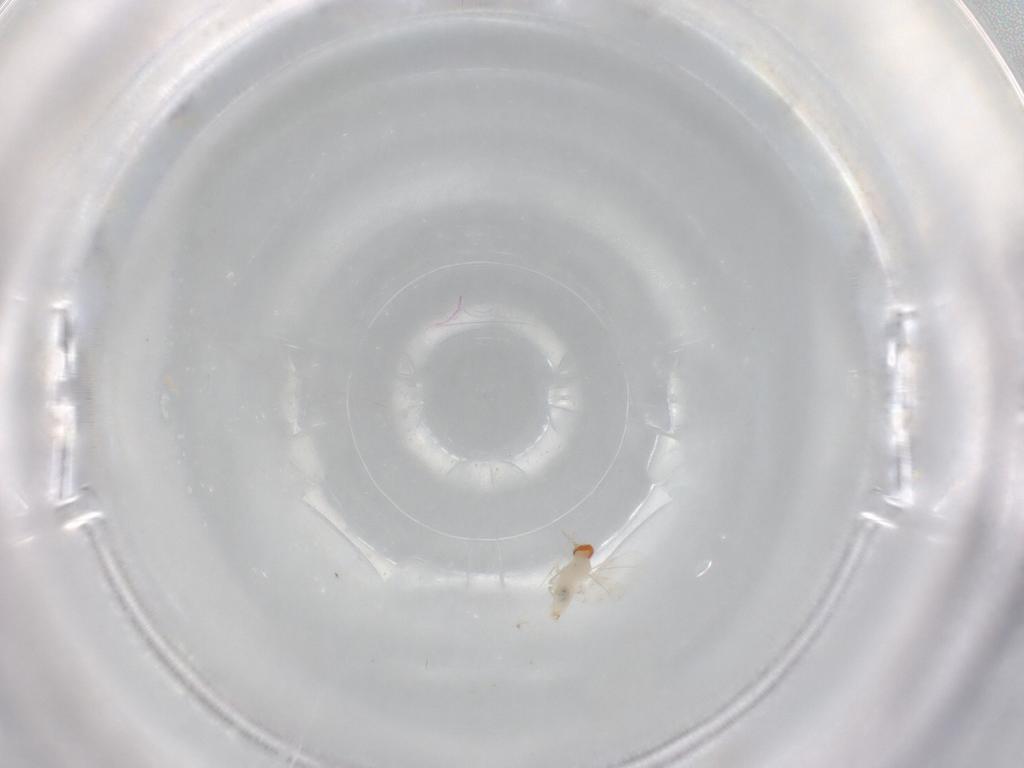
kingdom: Animalia
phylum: Arthropoda
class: Insecta
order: Diptera
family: Cecidomyiidae
